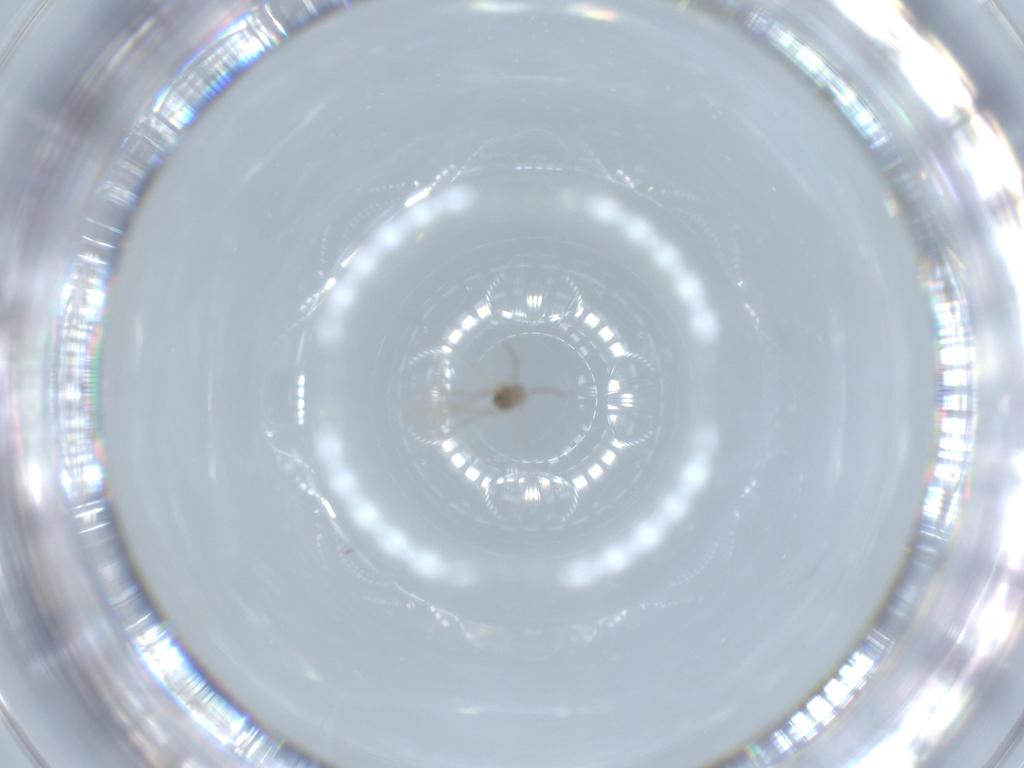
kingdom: Animalia
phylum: Arthropoda
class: Insecta
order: Diptera
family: Cecidomyiidae
